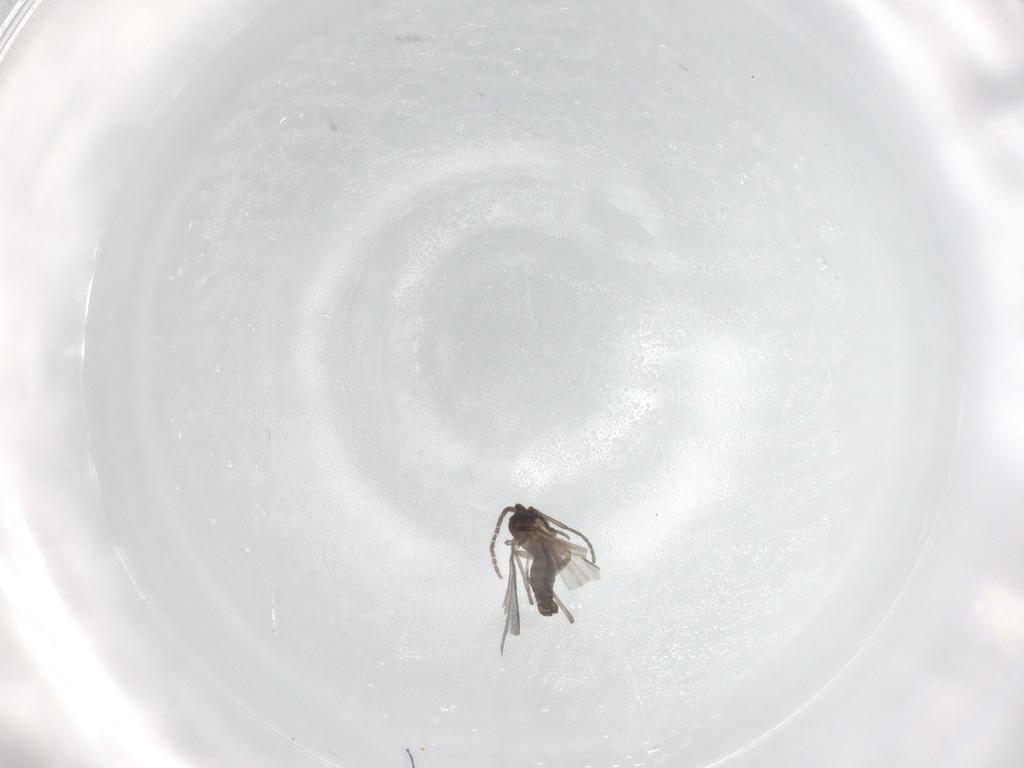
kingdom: Animalia
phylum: Arthropoda
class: Insecta
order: Diptera
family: Sciaridae
